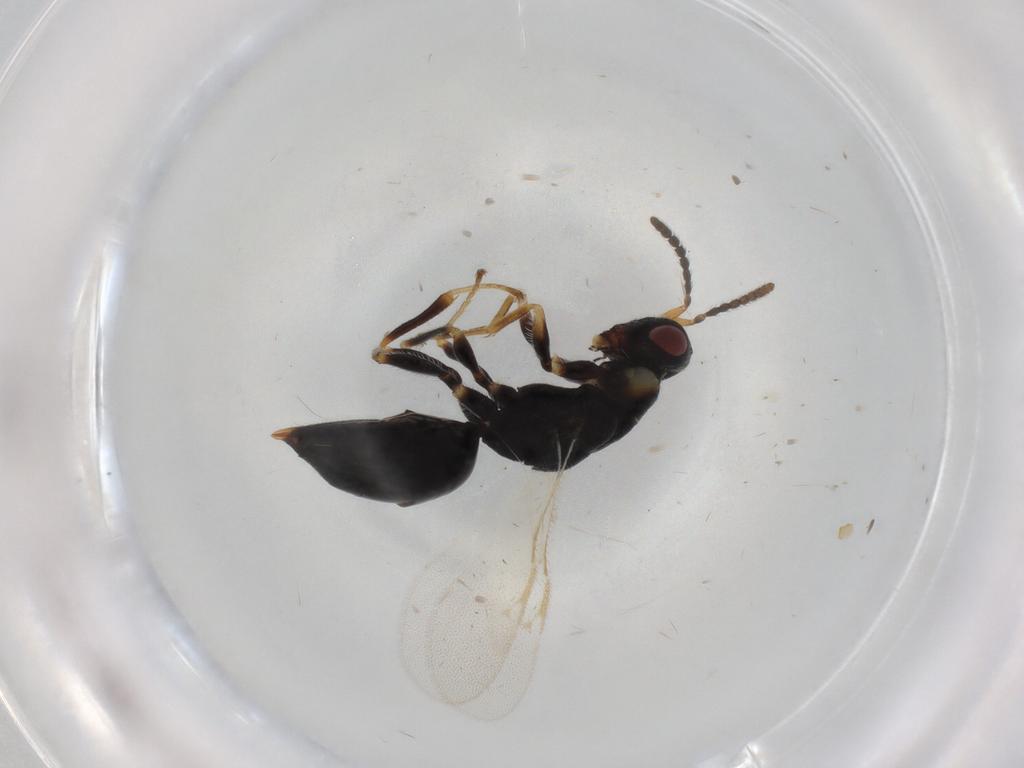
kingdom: Animalia
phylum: Arthropoda
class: Insecta
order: Hymenoptera
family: Eurytomidae
